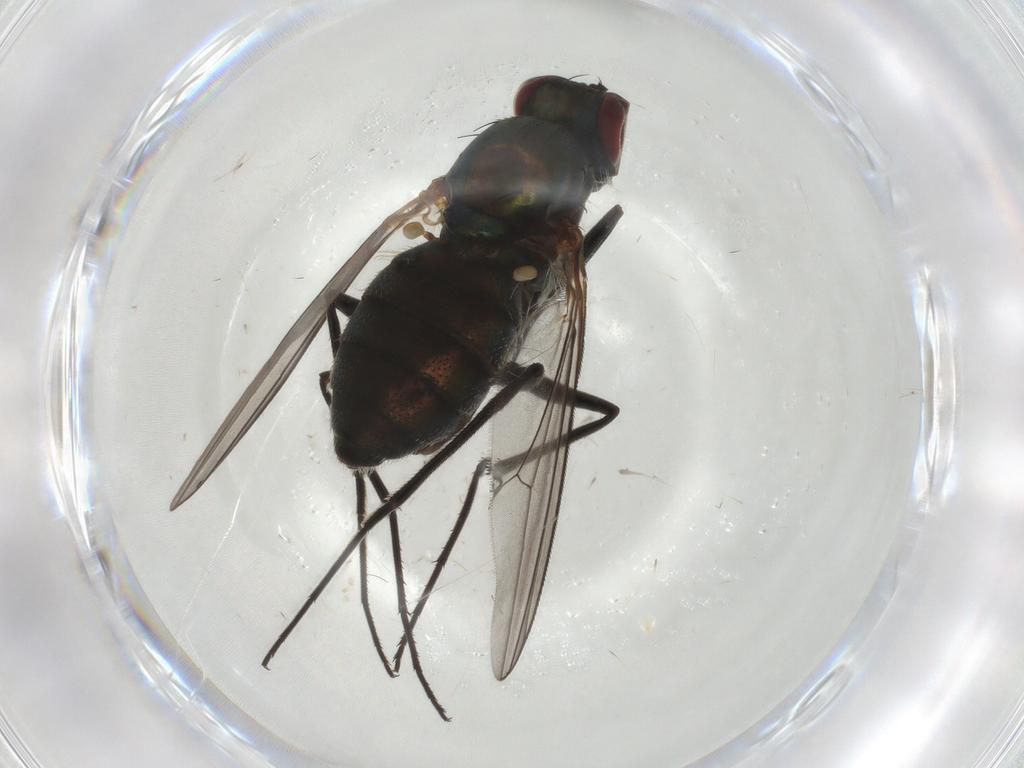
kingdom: Animalia
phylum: Arthropoda
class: Insecta
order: Diptera
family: Dolichopodidae
